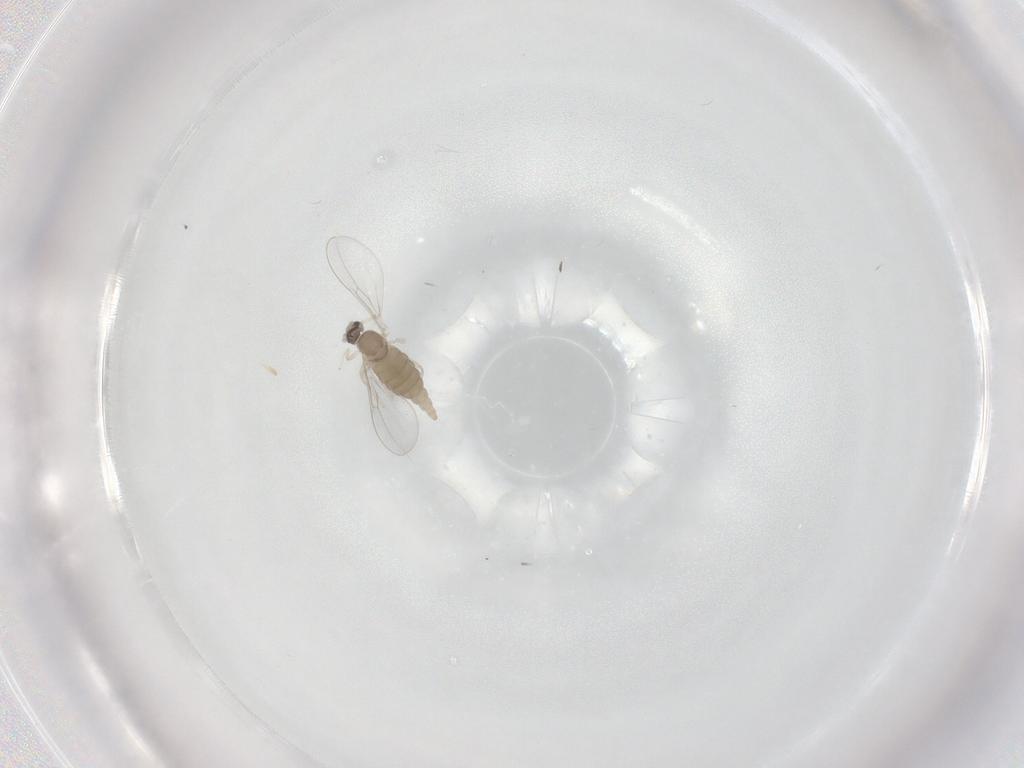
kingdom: Animalia
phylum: Arthropoda
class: Insecta
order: Diptera
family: Cecidomyiidae
